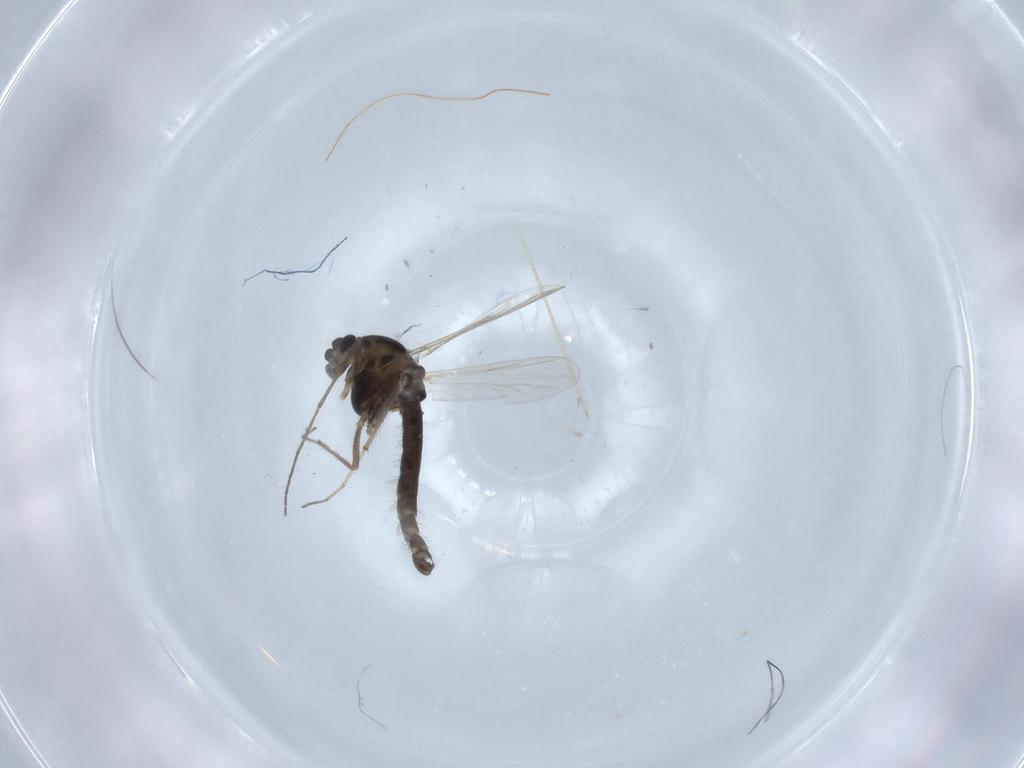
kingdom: Animalia
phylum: Arthropoda
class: Insecta
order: Diptera
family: Chironomidae
